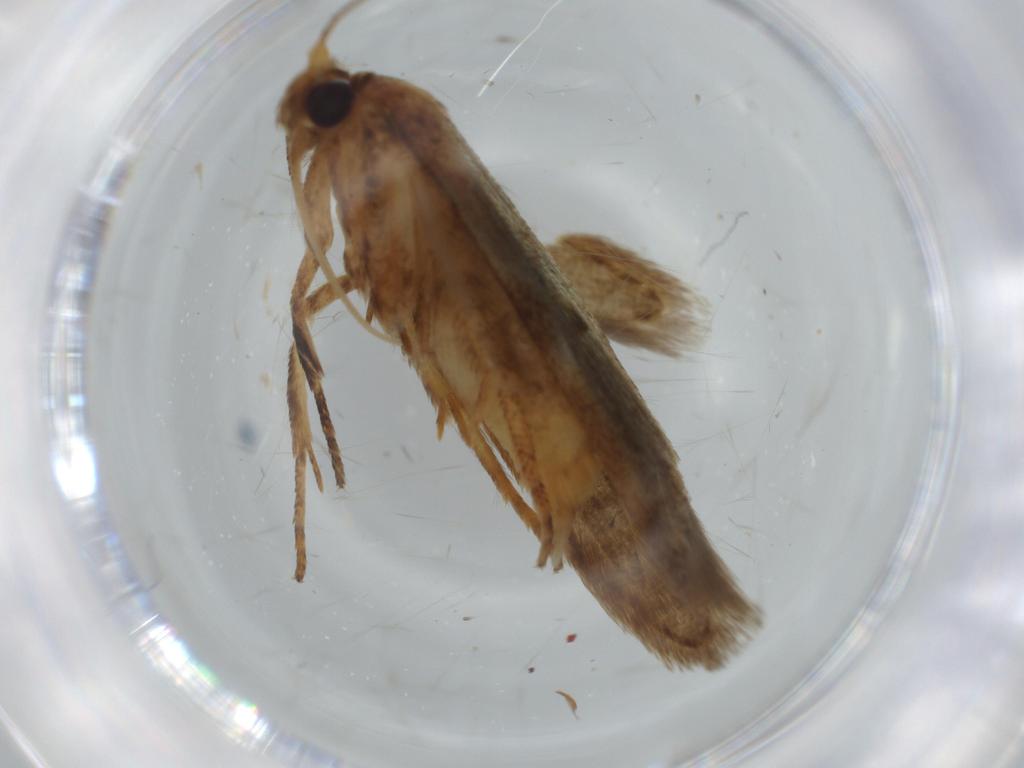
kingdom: Animalia
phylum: Arthropoda
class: Insecta
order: Lepidoptera
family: Blastobasidae
